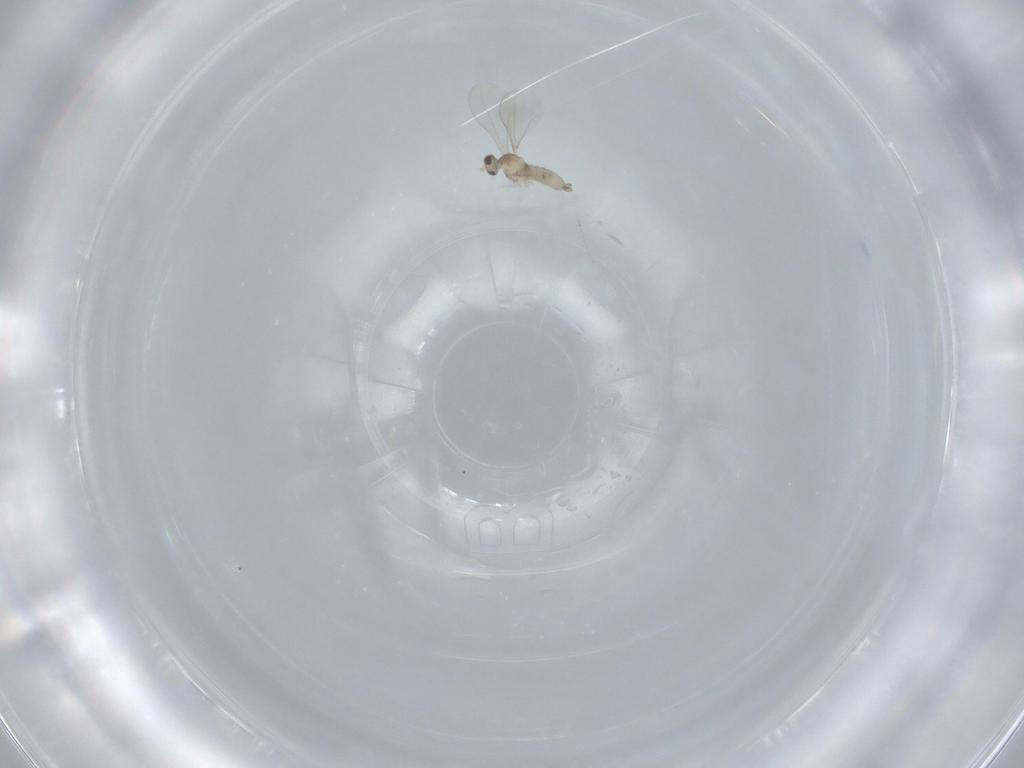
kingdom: Animalia
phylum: Arthropoda
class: Insecta
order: Diptera
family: Cecidomyiidae
